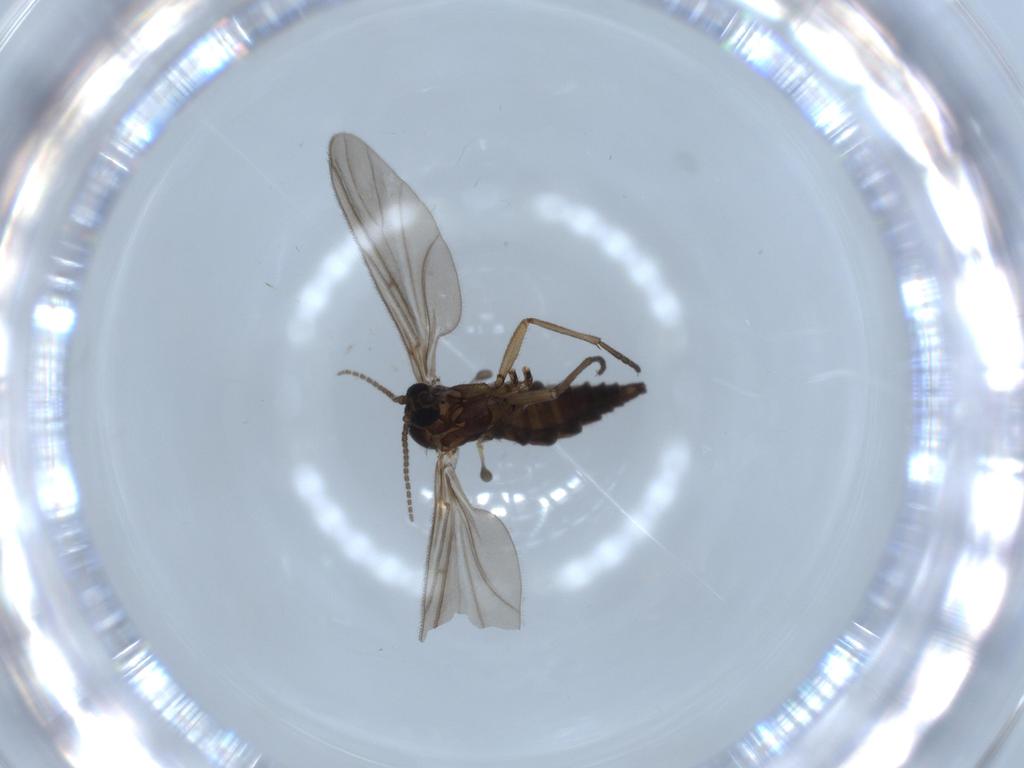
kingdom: Animalia
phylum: Arthropoda
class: Insecta
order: Diptera
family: Sciaridae
